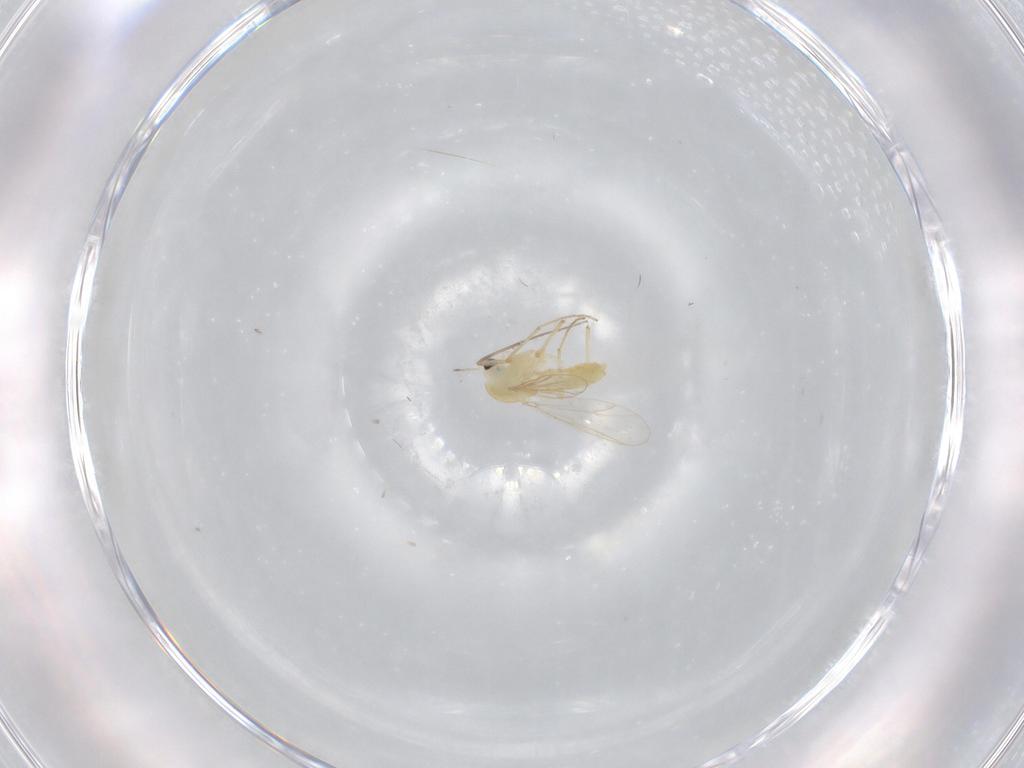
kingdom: Animalia
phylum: Arthropoda
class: Insecta
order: Diptera
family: Chironomidae
